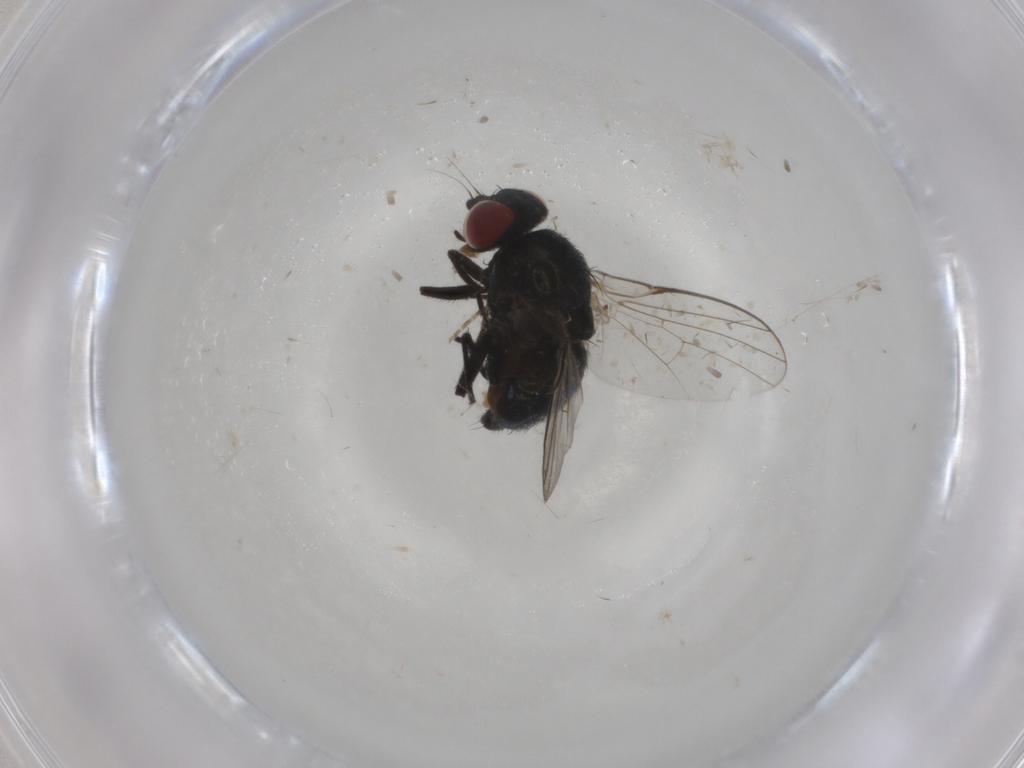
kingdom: Animalia
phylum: Arthropoda
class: Insecta
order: Diptera
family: Agromyzidae
